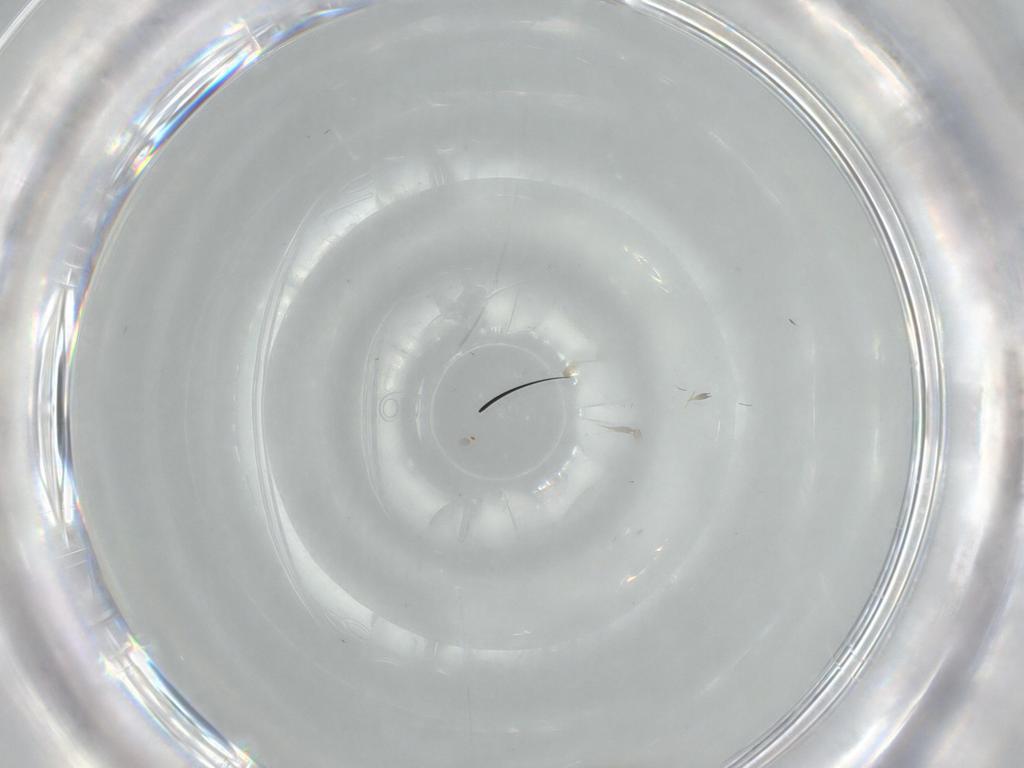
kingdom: Animalia
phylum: Arthropoda
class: Insecta
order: Diptera
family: Cecidomyiidae
